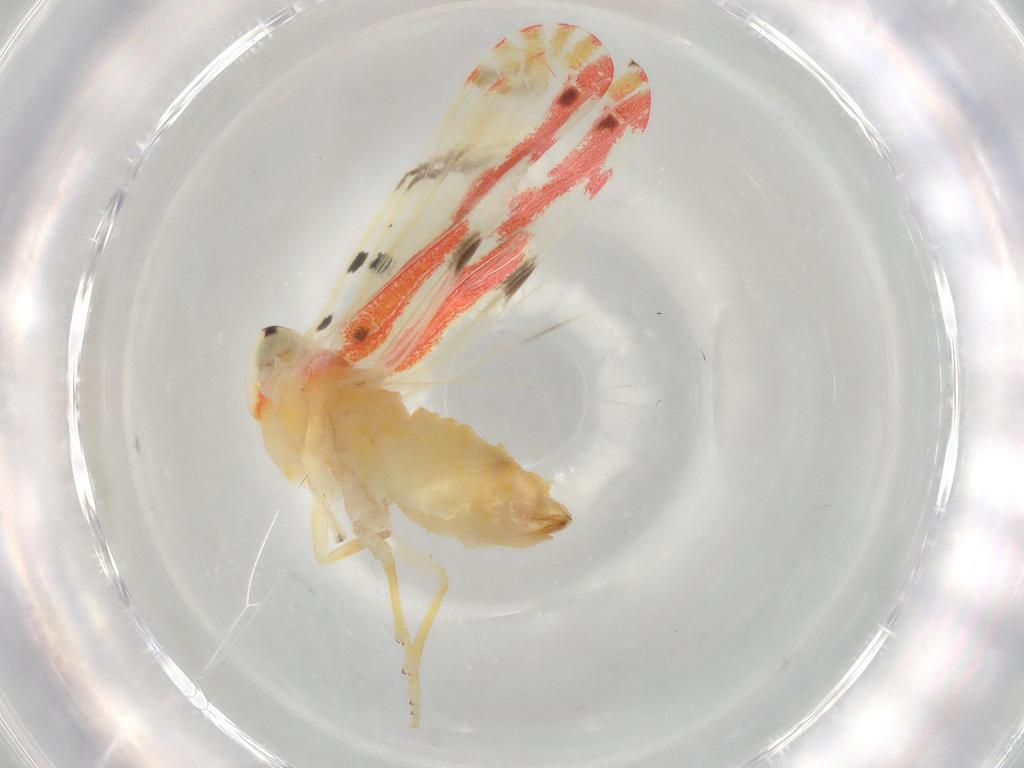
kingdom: Animalia
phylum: Arthropoda
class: Insecta
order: Hemiptera
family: Derbidae
